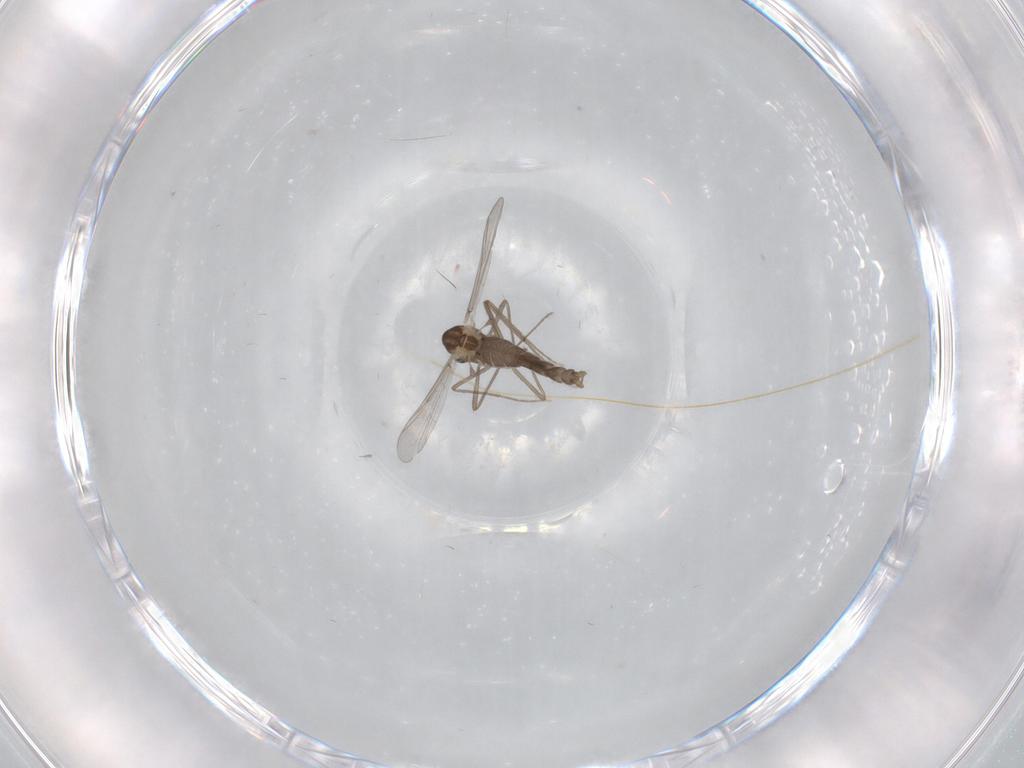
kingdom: Animalia
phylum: Arthropoda
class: Insecta
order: Diptera
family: Chironomidae
